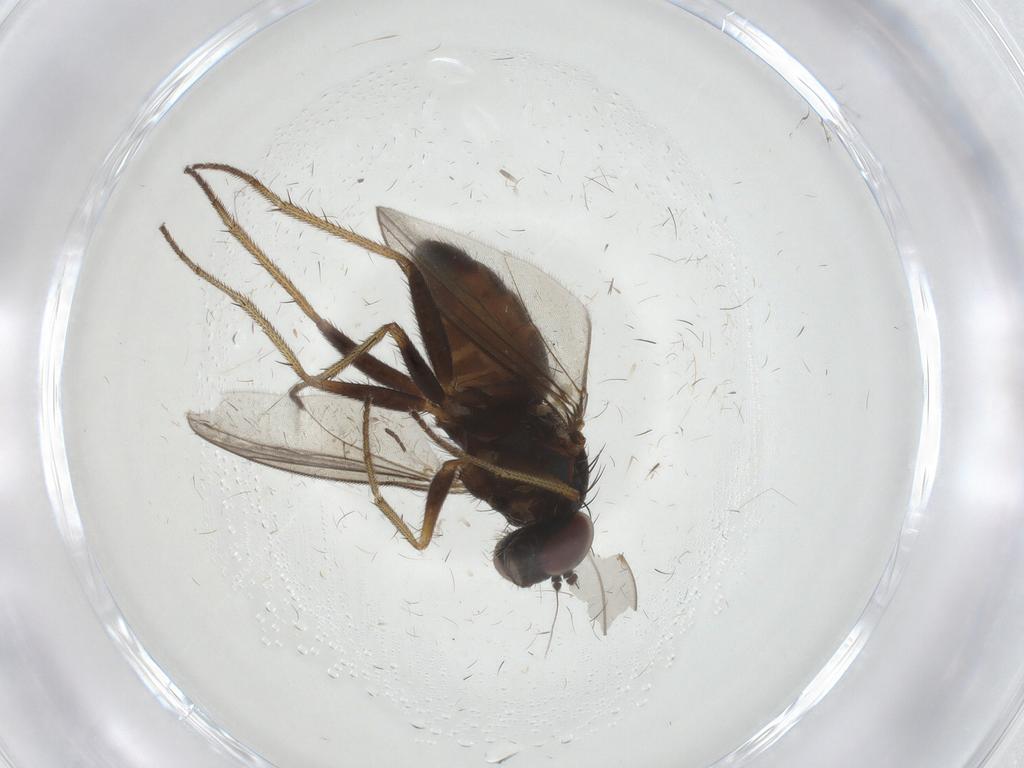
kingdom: Animalia
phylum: Arthropoda
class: Insecta
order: Diptera
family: Dolichopodidae
